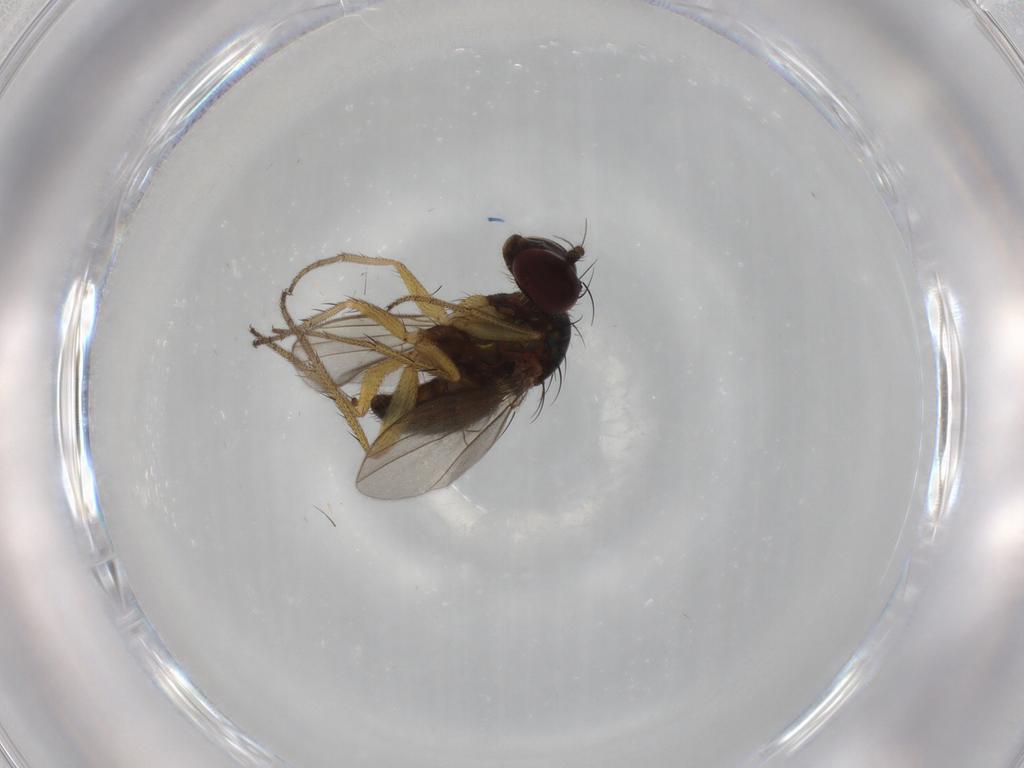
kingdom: Animalia
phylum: Arthropoda
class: Insecta
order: Diptera
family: Dolichopodidae
